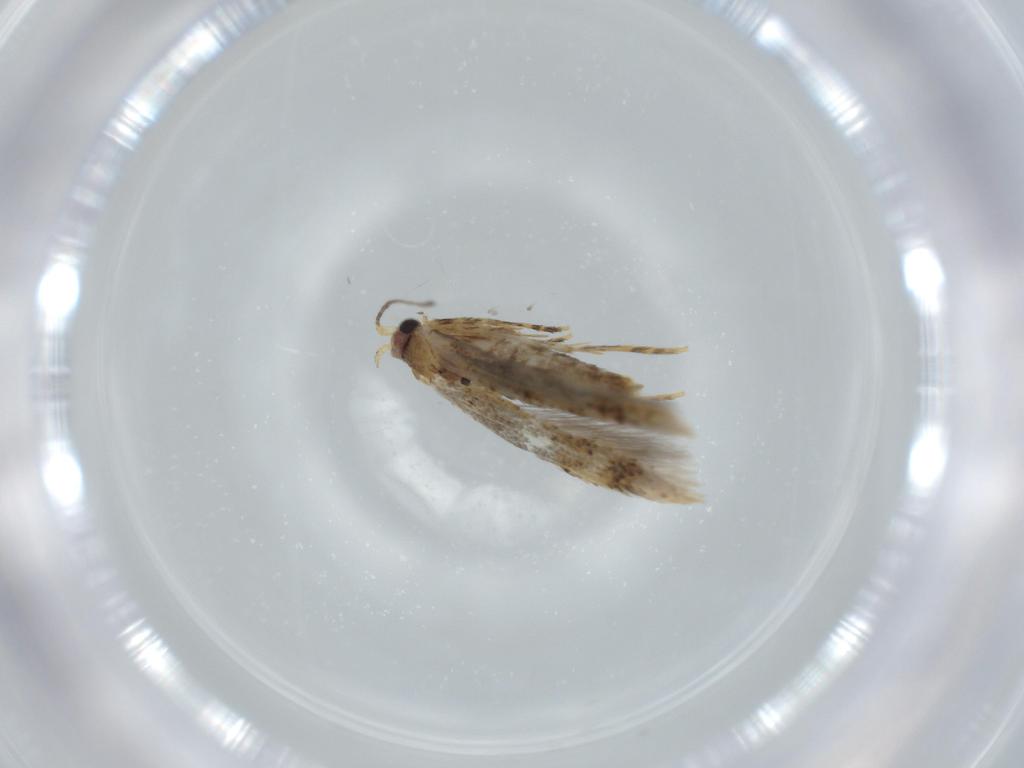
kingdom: Animalia
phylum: Arthropoda
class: Insecta
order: Lepidoptera
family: Tineidae
